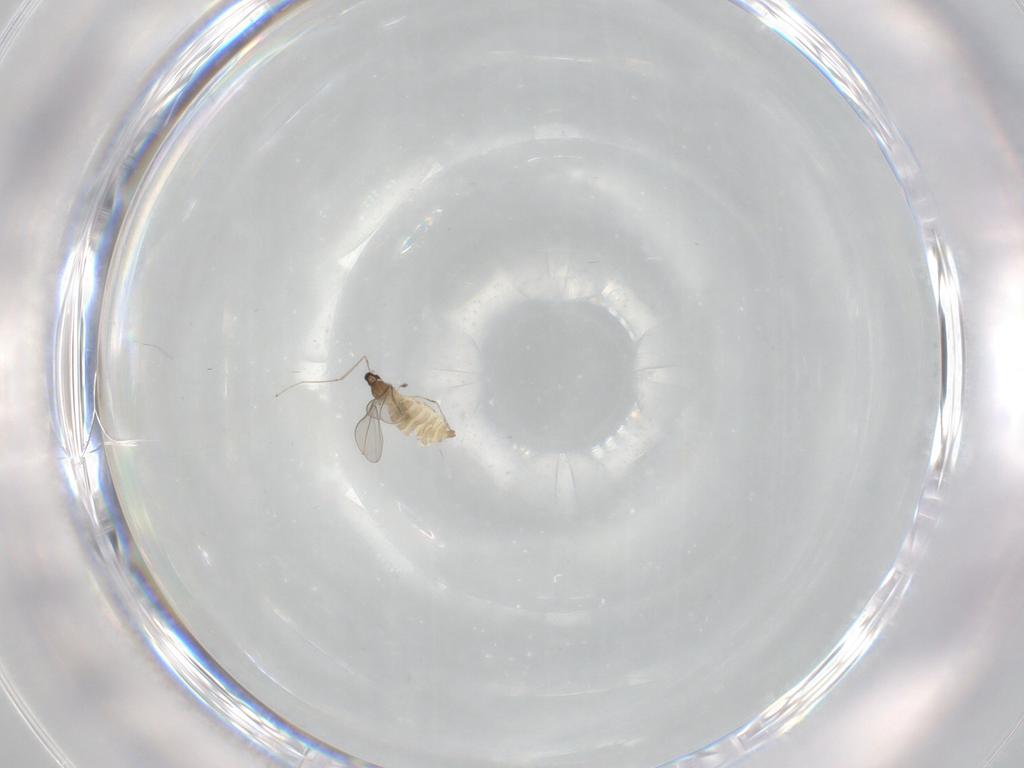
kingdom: Animalia
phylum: Arthropoda
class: Insecta
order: Diptera
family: Cecidomyiidae
